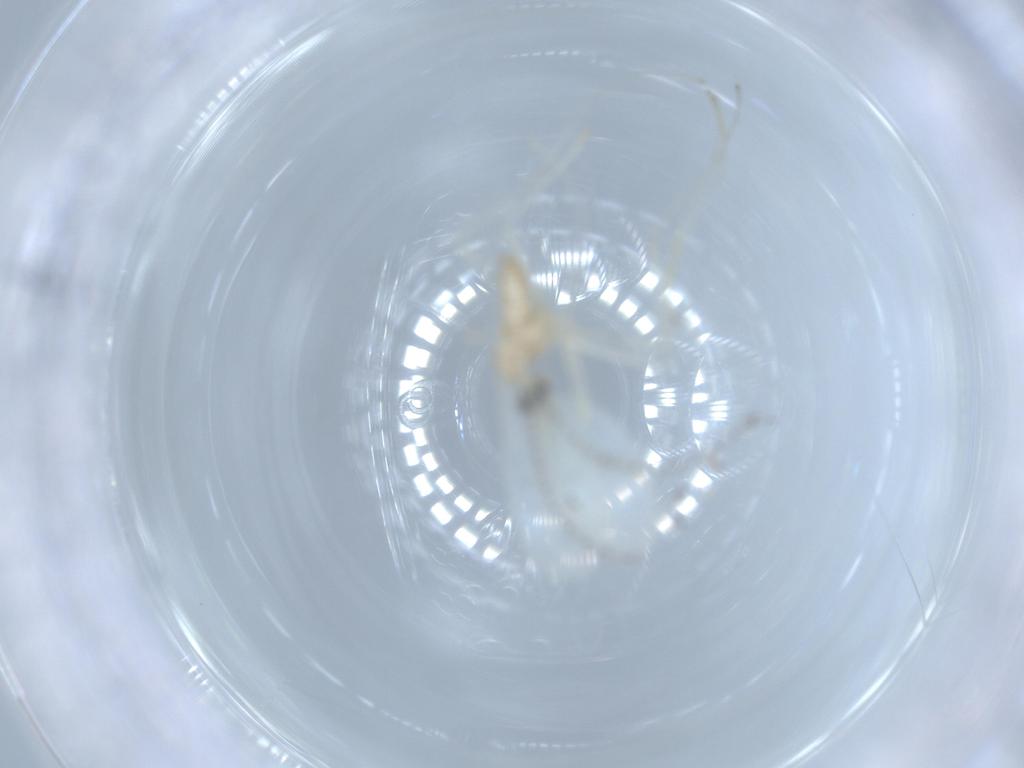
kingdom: Animalia
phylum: Arthropoda
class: Insecta
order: Diptera
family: Cecidomyiidae
